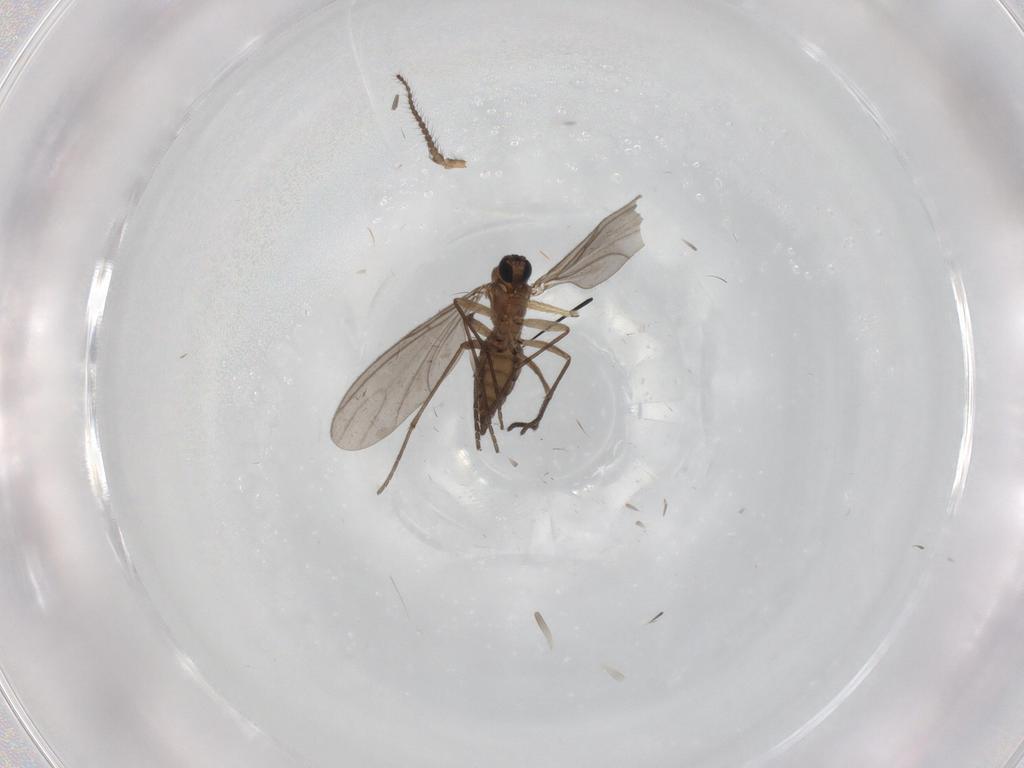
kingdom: Animalia
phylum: Arthropoda
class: Insecta
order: Diptera
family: Sciaridae
